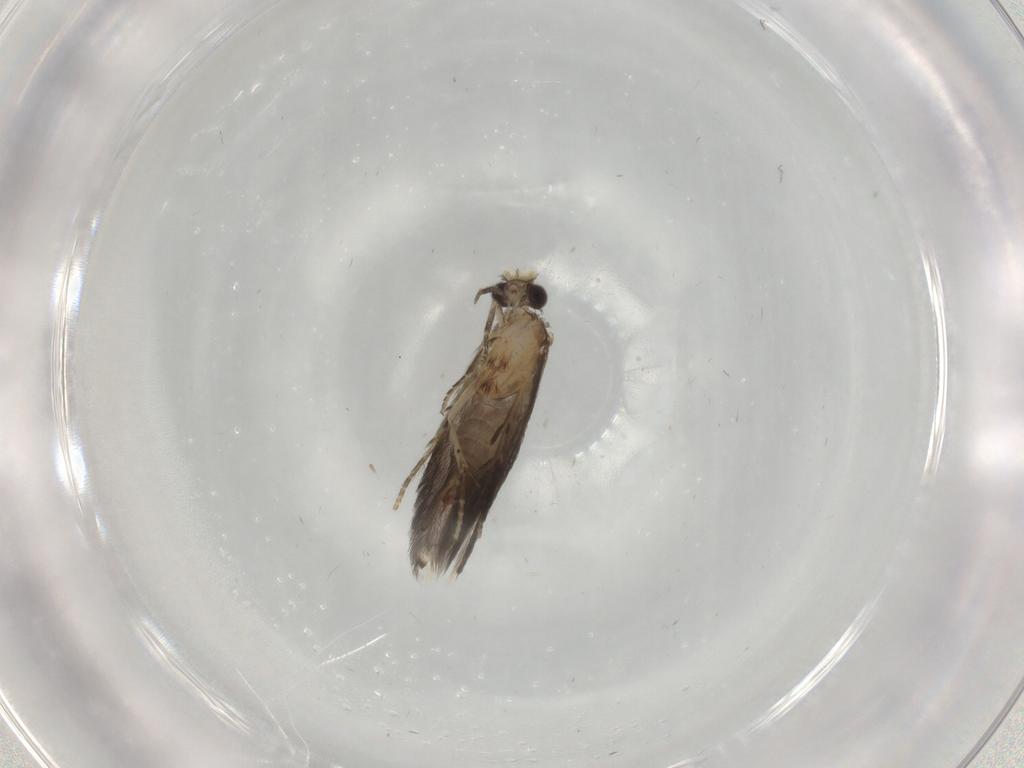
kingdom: Animalia
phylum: Arthropoda
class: Insecta
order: Trichoptera
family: Hydroptilidae
